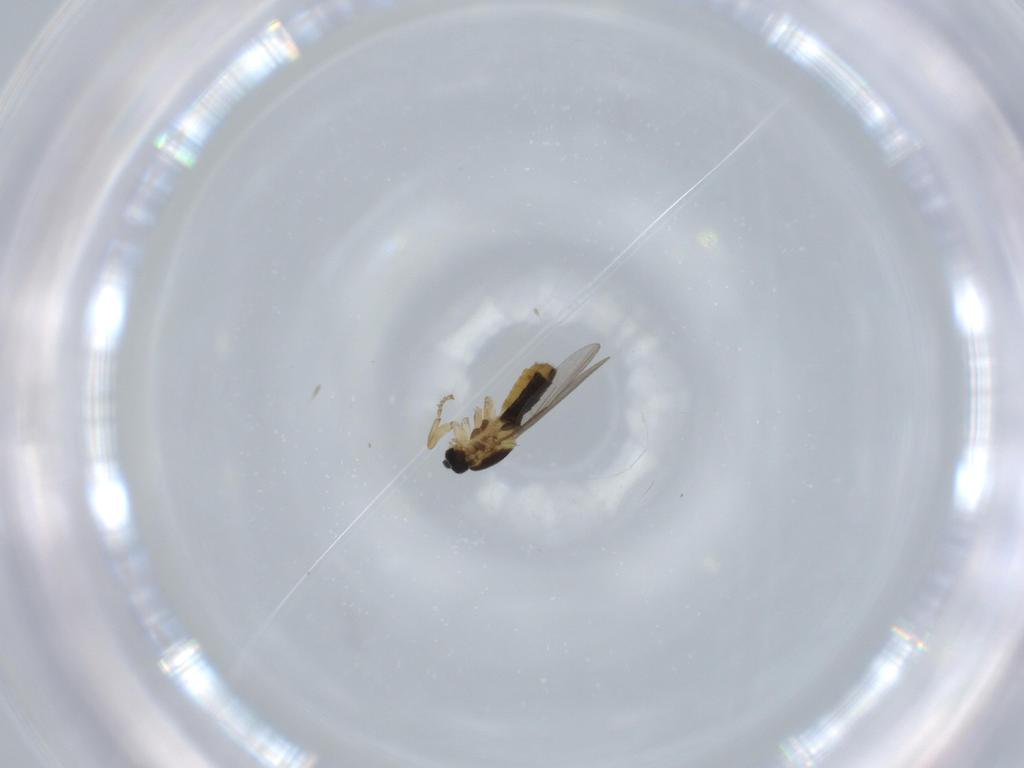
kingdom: Animalia
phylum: Arthropoda
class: Insecta
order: Diptera
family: Scatopsidae
